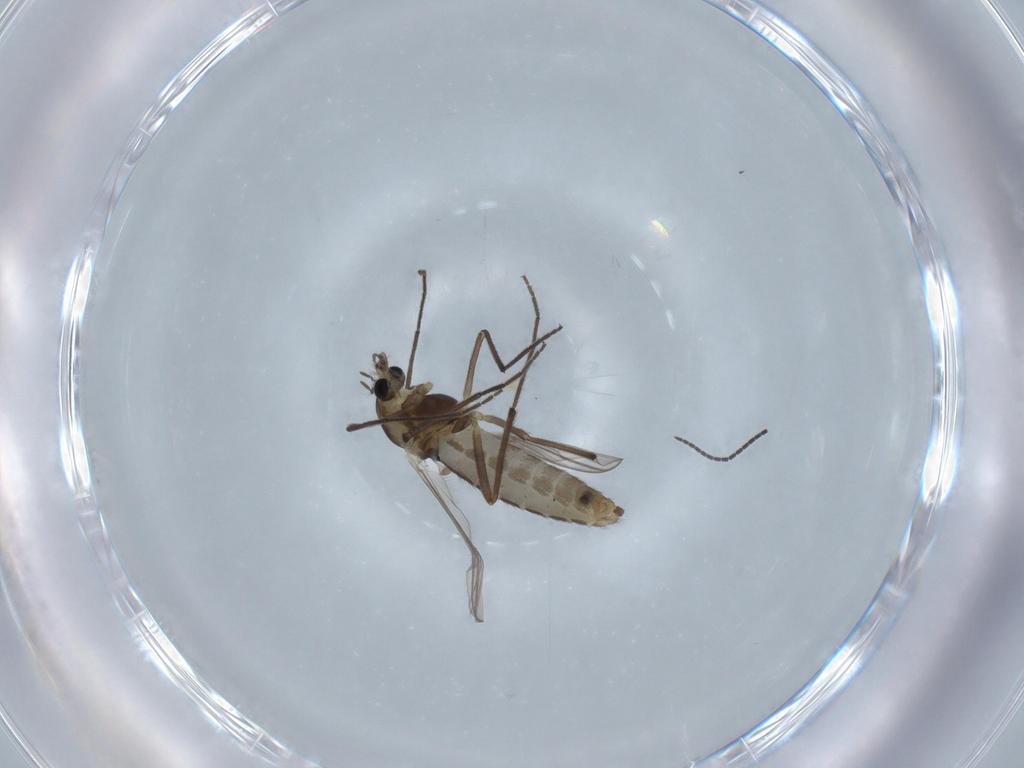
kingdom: Animalia
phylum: Arthropoda
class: Insecta
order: Diptera
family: Chironomidae
